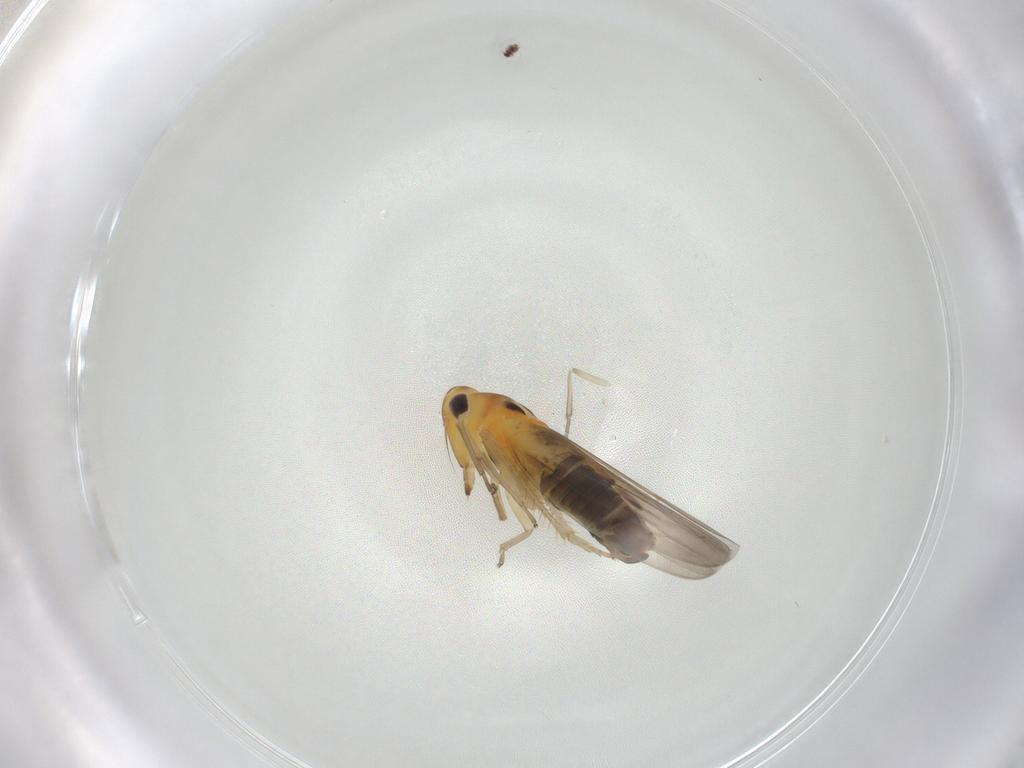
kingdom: Animalia
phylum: Arthropoda
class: Insecta
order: Hemiptera
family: Cicadellidae
